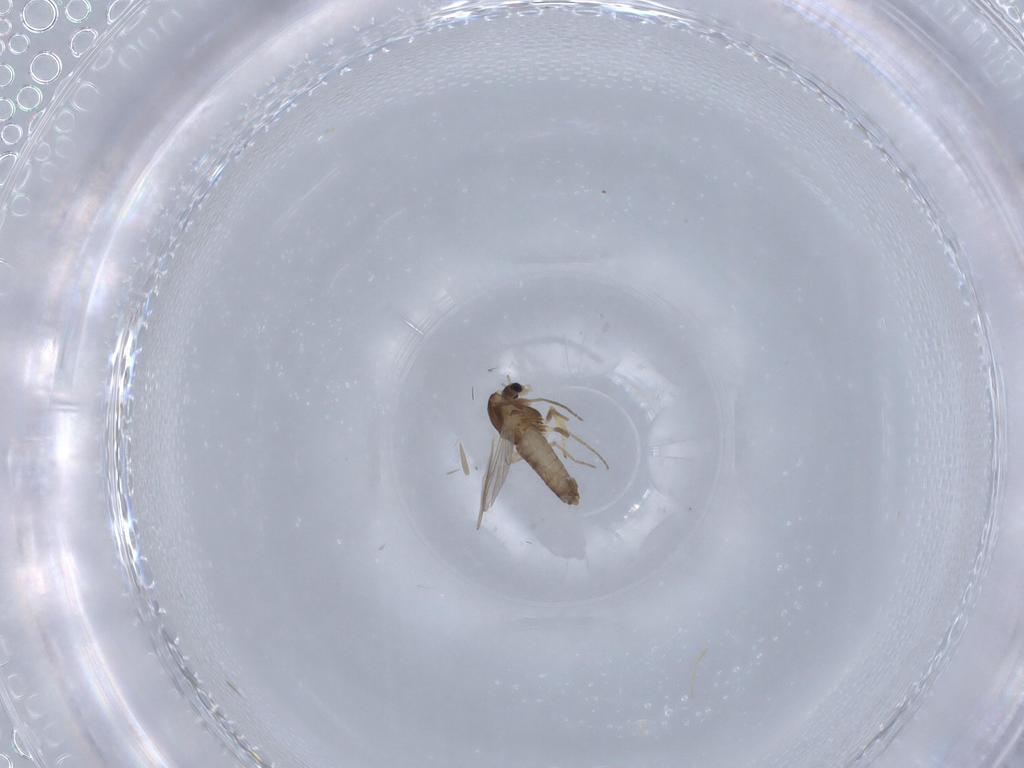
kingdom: Animalia
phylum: Arthropoda
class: Insecta
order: Diptera
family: Chironomidae
